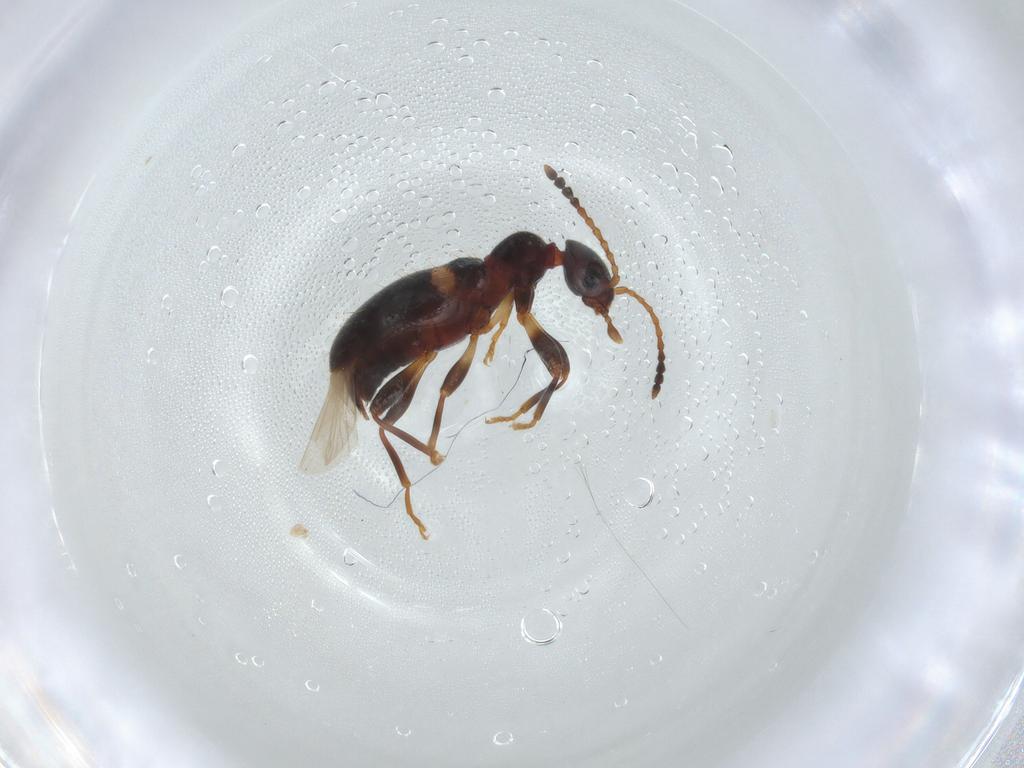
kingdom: Animalia
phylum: Arthropoda
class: Insecta
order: Coleoptera
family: Anthicidae
